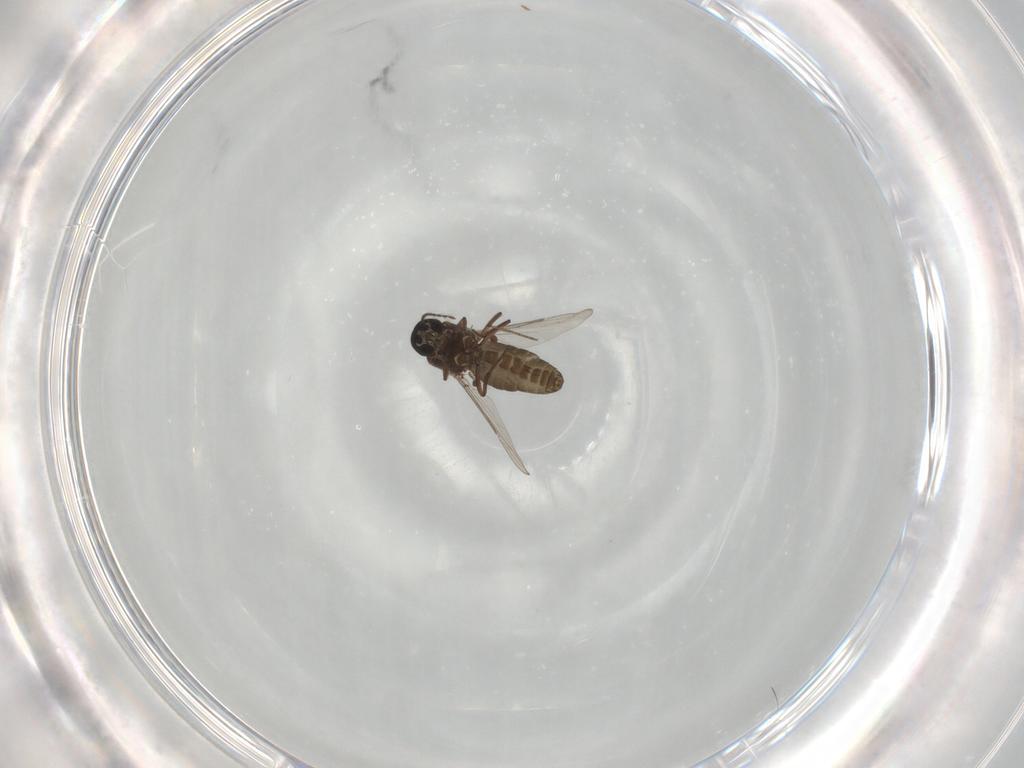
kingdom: Animalia
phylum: Arthropoda
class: Insecta
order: Diptera
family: Ceratopogonidae
